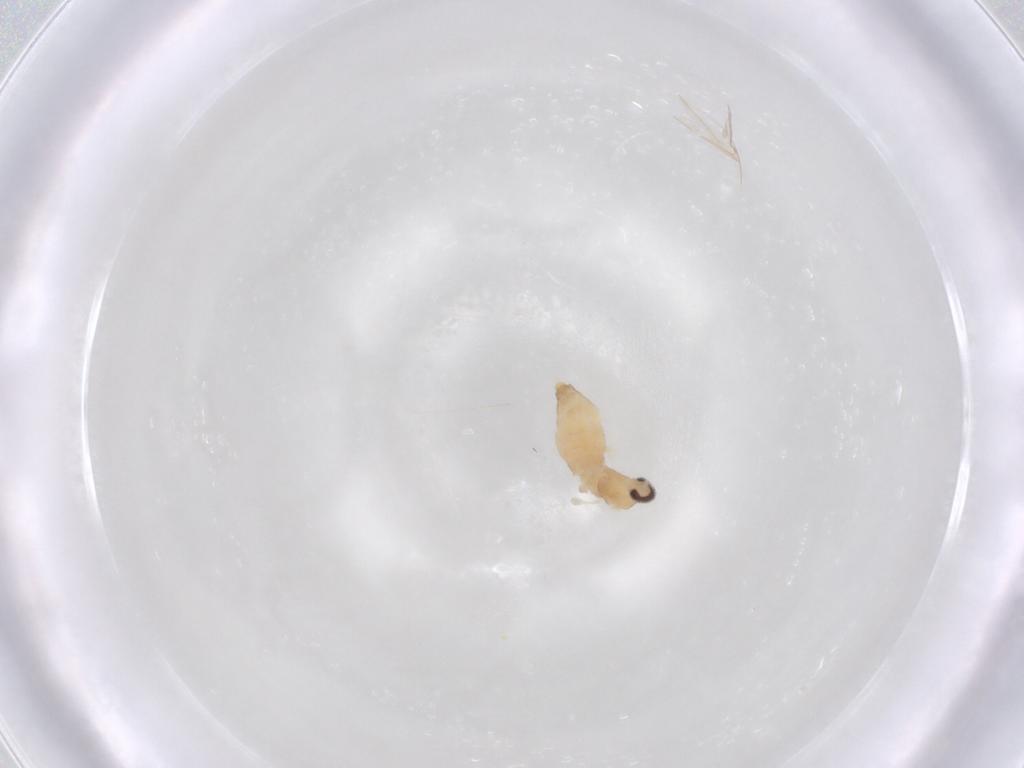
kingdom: Animalia
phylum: Arthropoda
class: Insecta
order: Diptera
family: Cecidomyiidae
